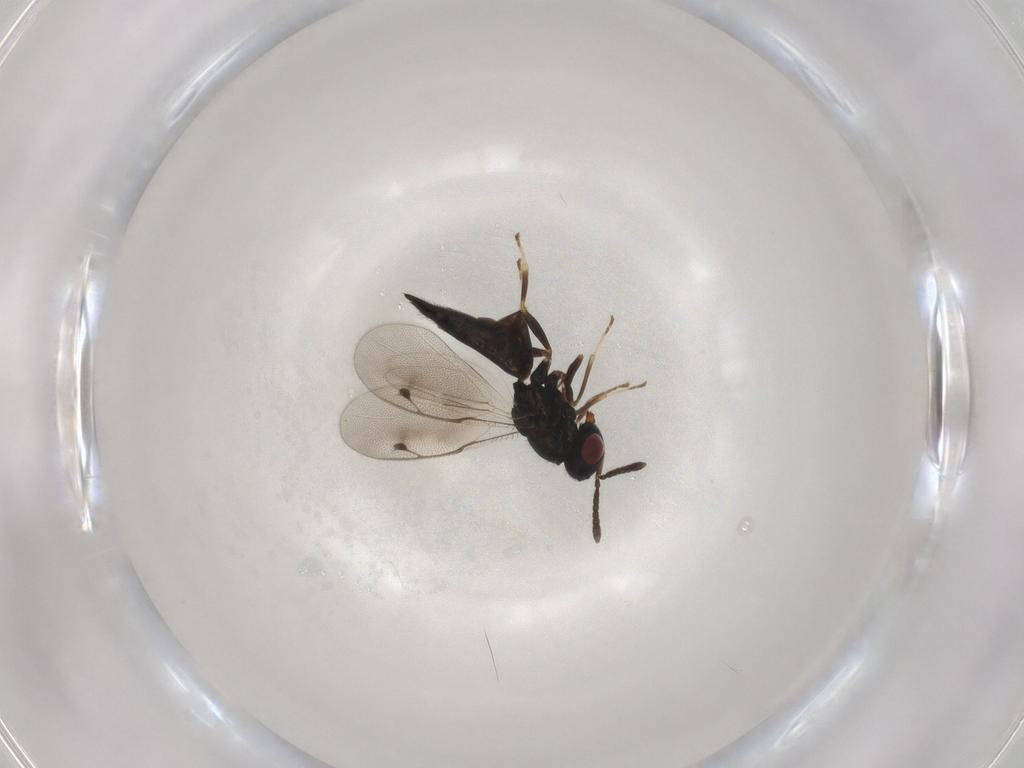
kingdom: Animalia
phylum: Arthropoda
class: Insecta
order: Hymenoptera
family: Pteromalidae
